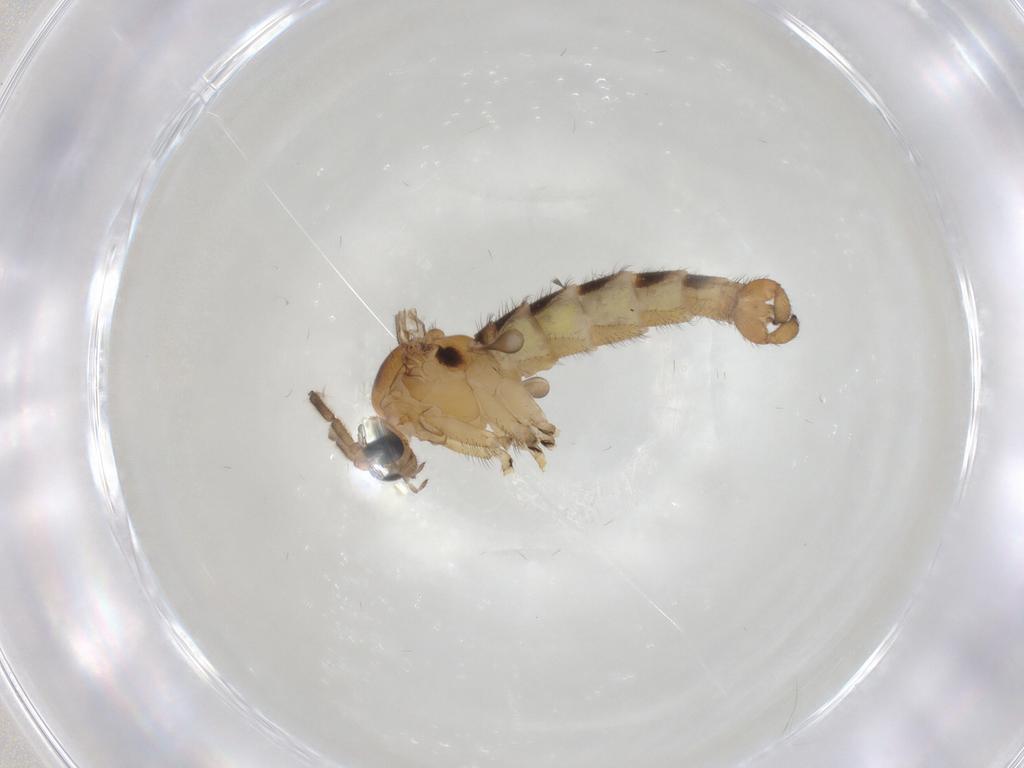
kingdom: Animalia
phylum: Arthropoda
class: Insecta
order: Diptera
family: Sciaridae
